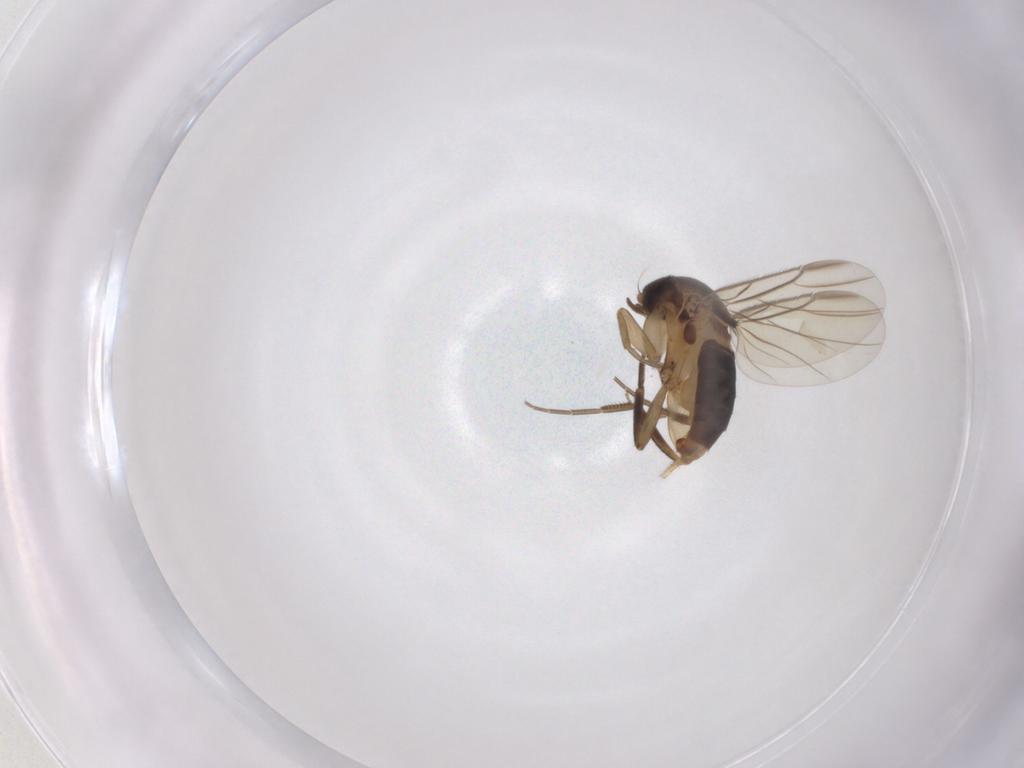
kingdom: Animalia
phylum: Arthropoda
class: Insecta
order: Diptera
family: Phoridae
